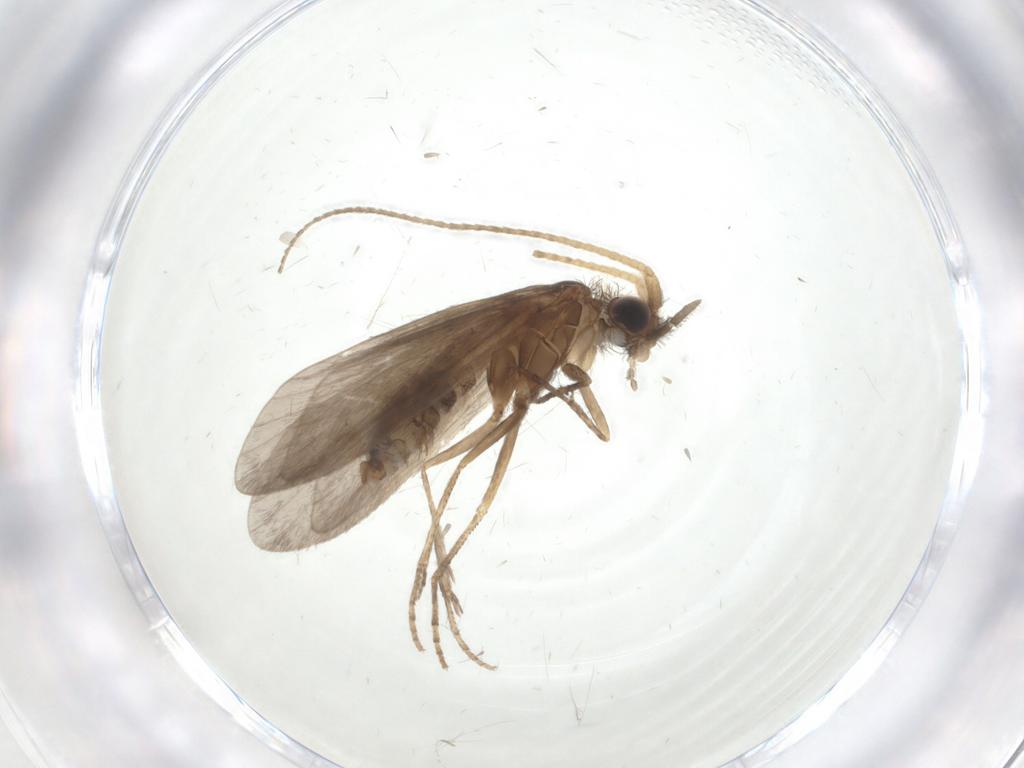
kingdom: Animalia
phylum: Arthropoda
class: Insecta
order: Trichoptera
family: Helicopsychidae
